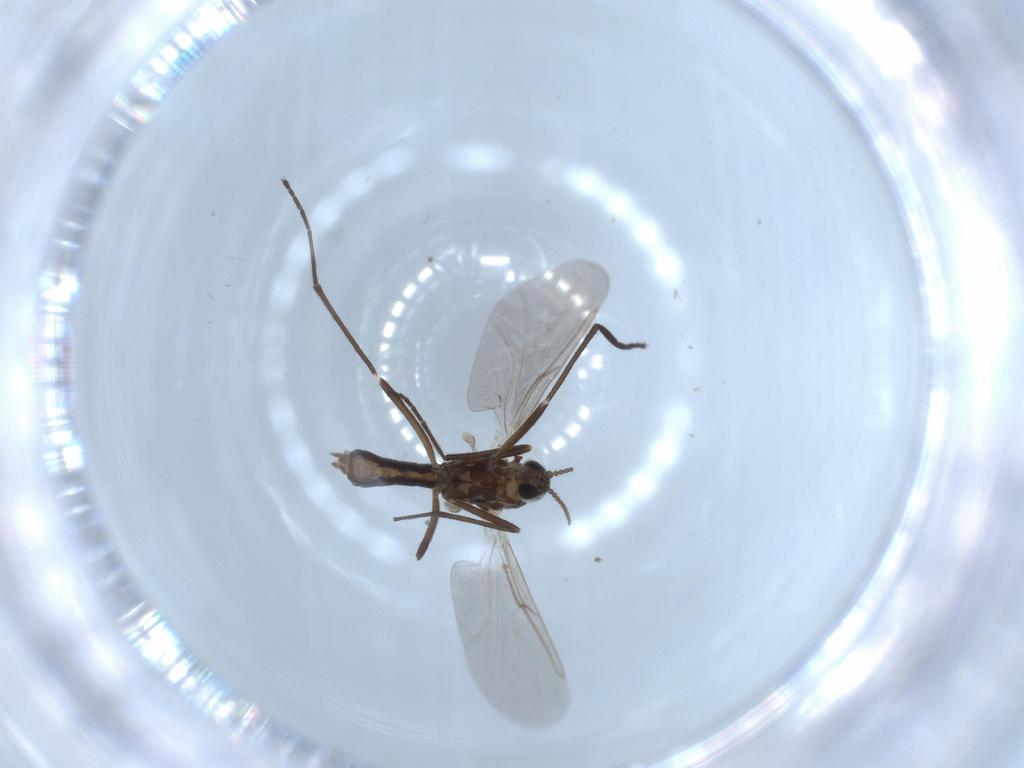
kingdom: Animalia
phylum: Arthropoda
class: Insecta
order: Diptera
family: Cecidomyiidae
